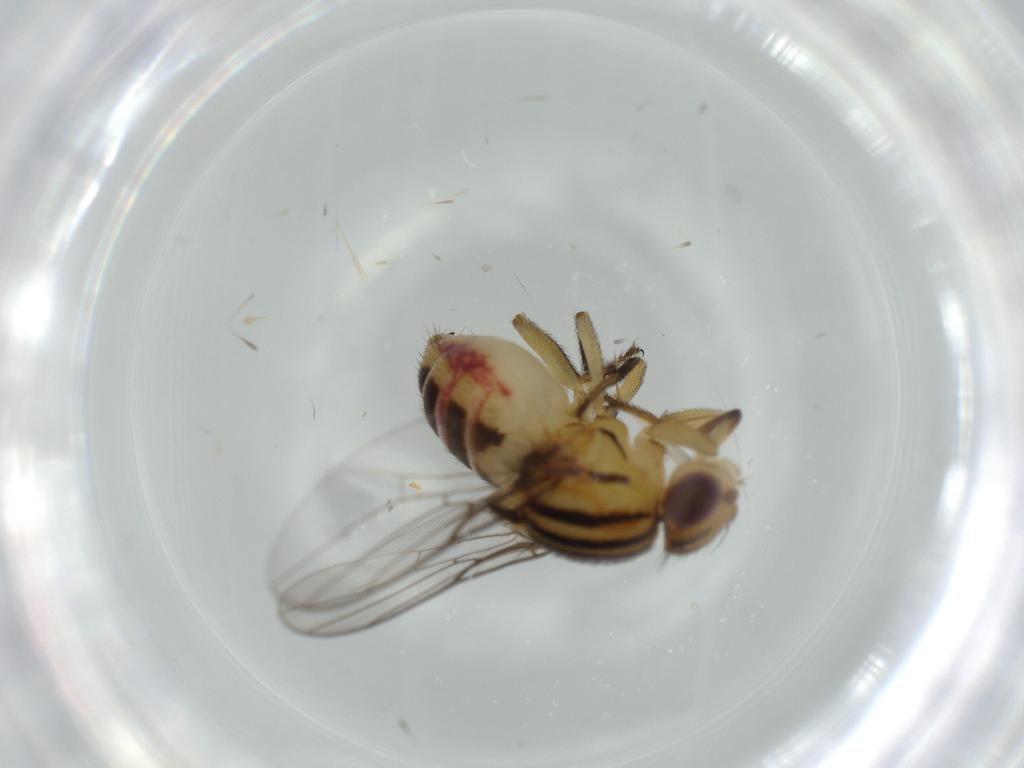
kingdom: Animalia
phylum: Arthropoda
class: Insecta
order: Diptera
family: Chloropidae
